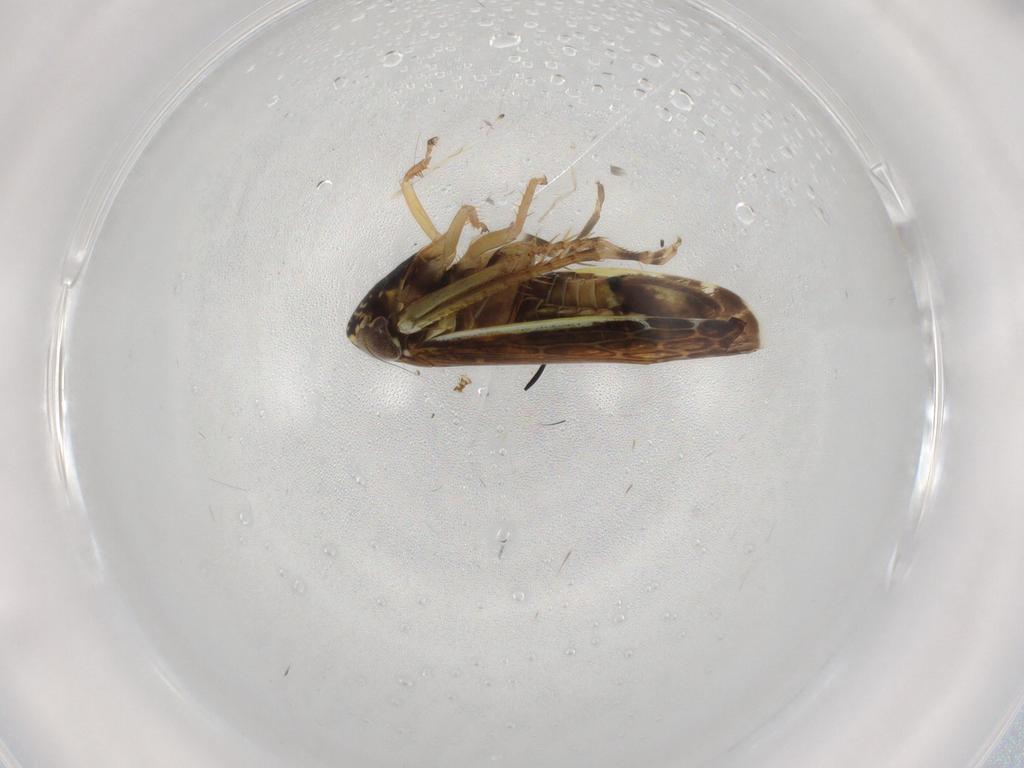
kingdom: Animalia
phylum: Arthropoda
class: Insecta
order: Hemiptera
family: Cicadellidae
